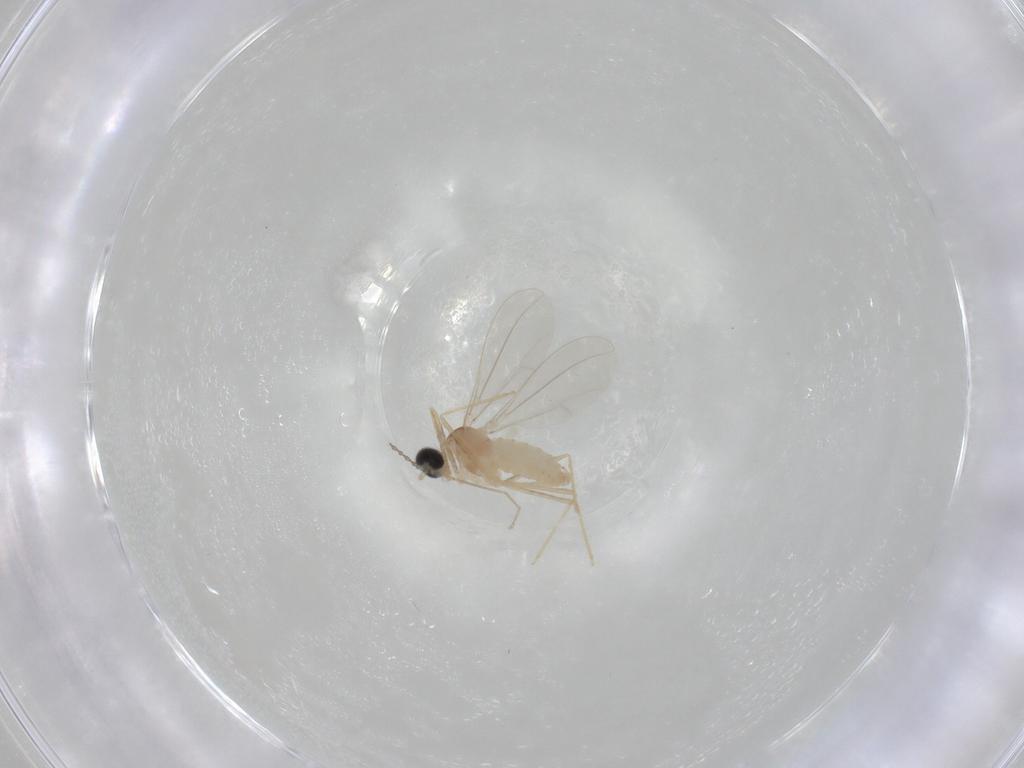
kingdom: Animalia
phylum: Arthropoda
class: Insecta
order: Diptera
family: Cecidomyiidae
